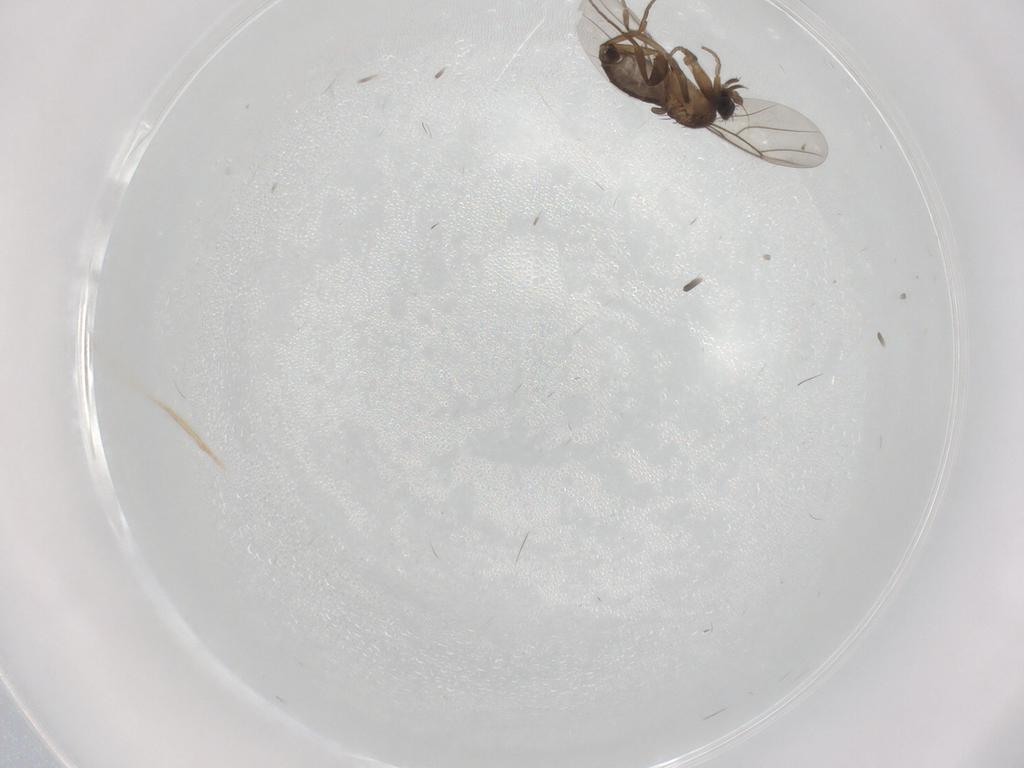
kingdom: Animalia
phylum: Arthropoda
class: Insecta
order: Diptera
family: Phoridae
